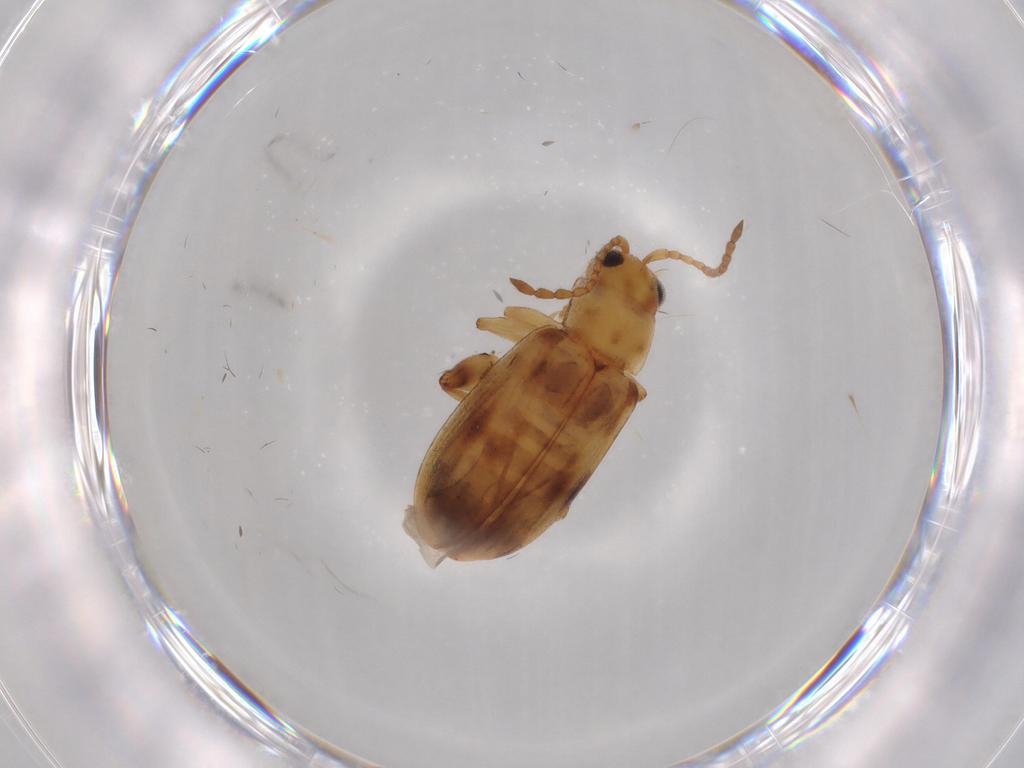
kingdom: Animalia
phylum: Arthropoda
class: Insecta
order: Coleoptera
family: Chrysomelidae
